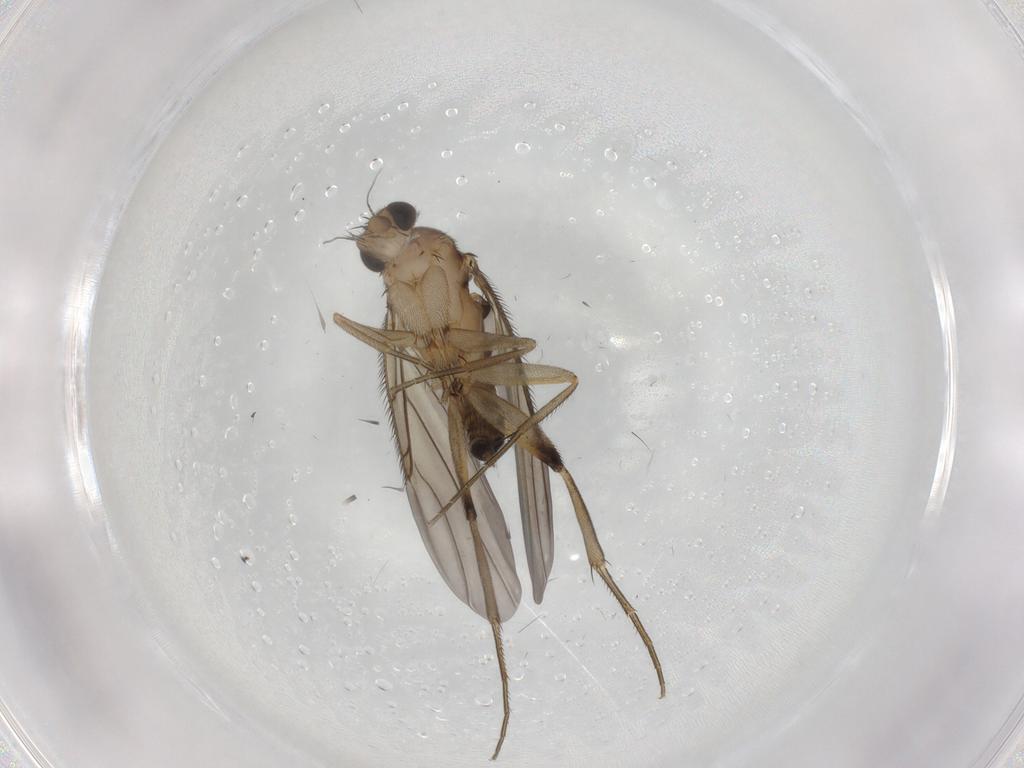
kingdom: Animalia
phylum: Arthropoda
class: Insecta
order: Diptera
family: Phoridae
